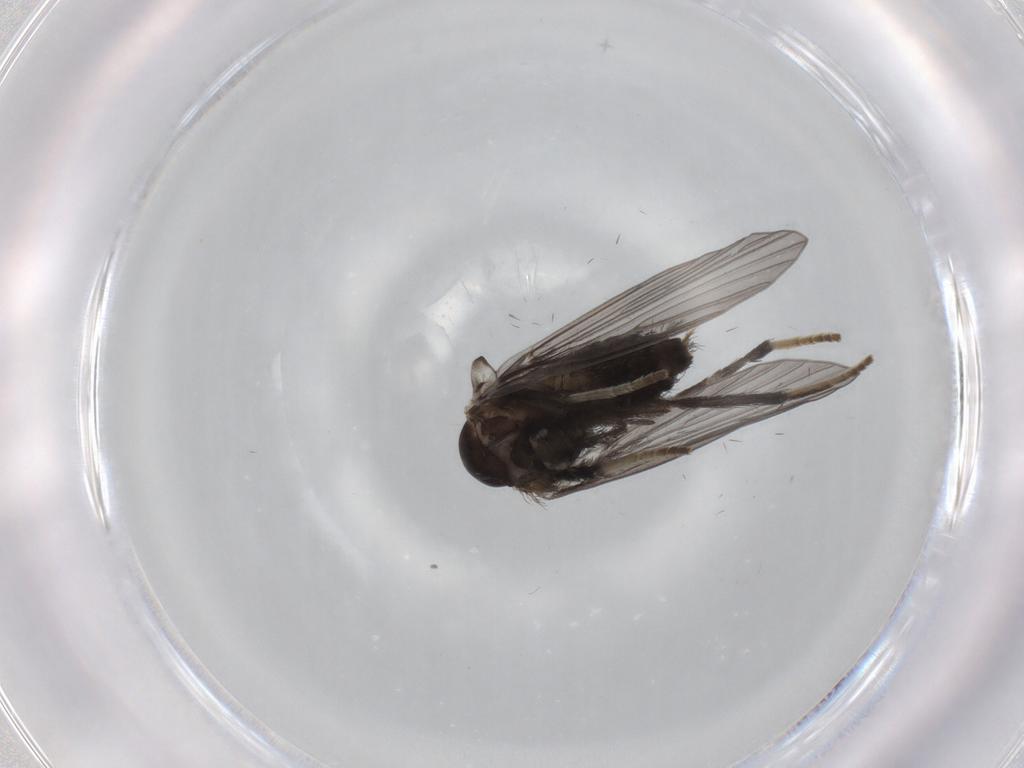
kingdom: Animalia
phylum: Arthropoda
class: Insecta
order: Diptera
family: Psychodidae
